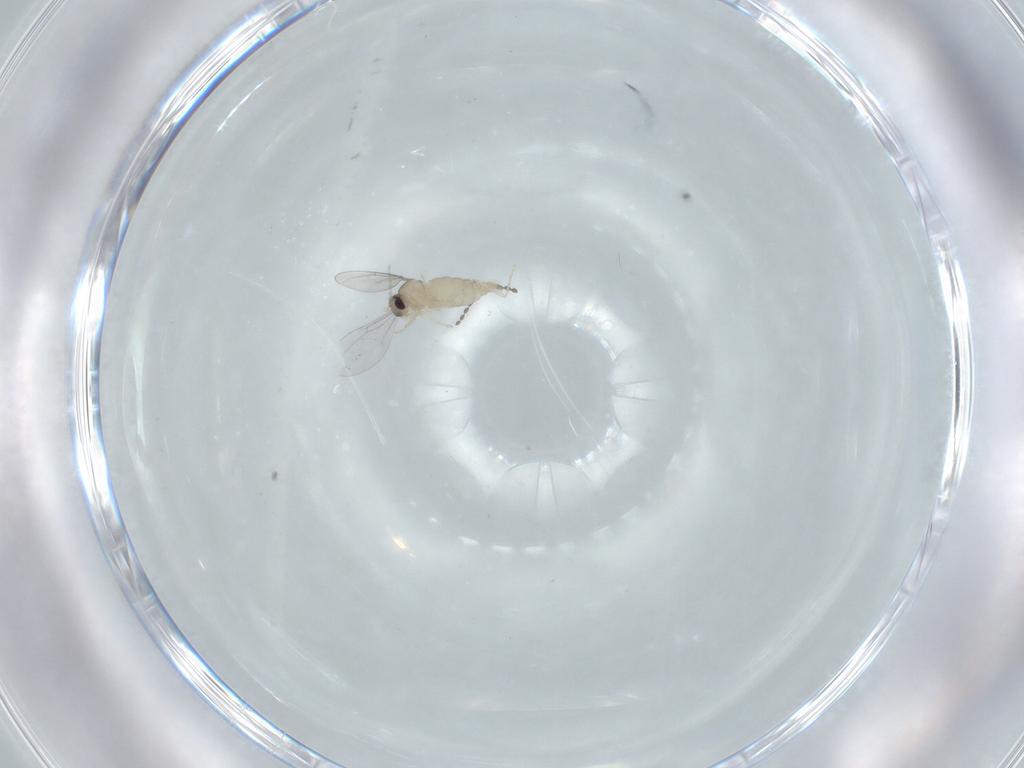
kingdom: Animalia
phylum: Arthropoda
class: Insecta
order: Diptera
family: Cecidomyiidae
